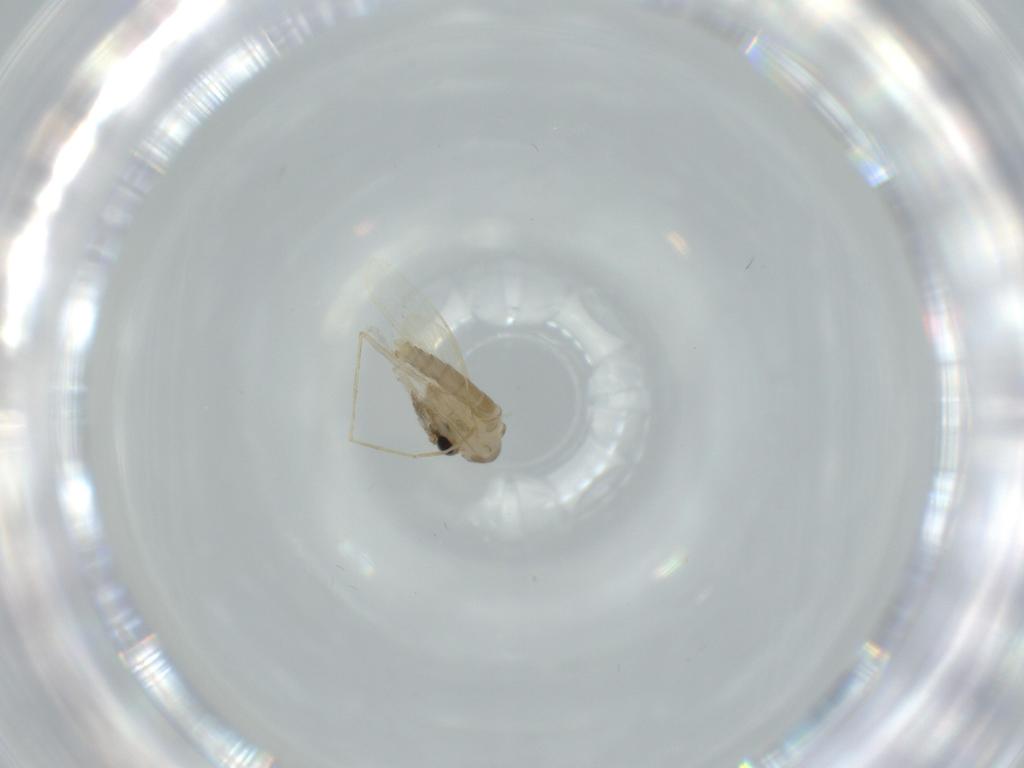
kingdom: Animalia
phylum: Arthropoda
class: Insecta
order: Diptera
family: Psychodidae
